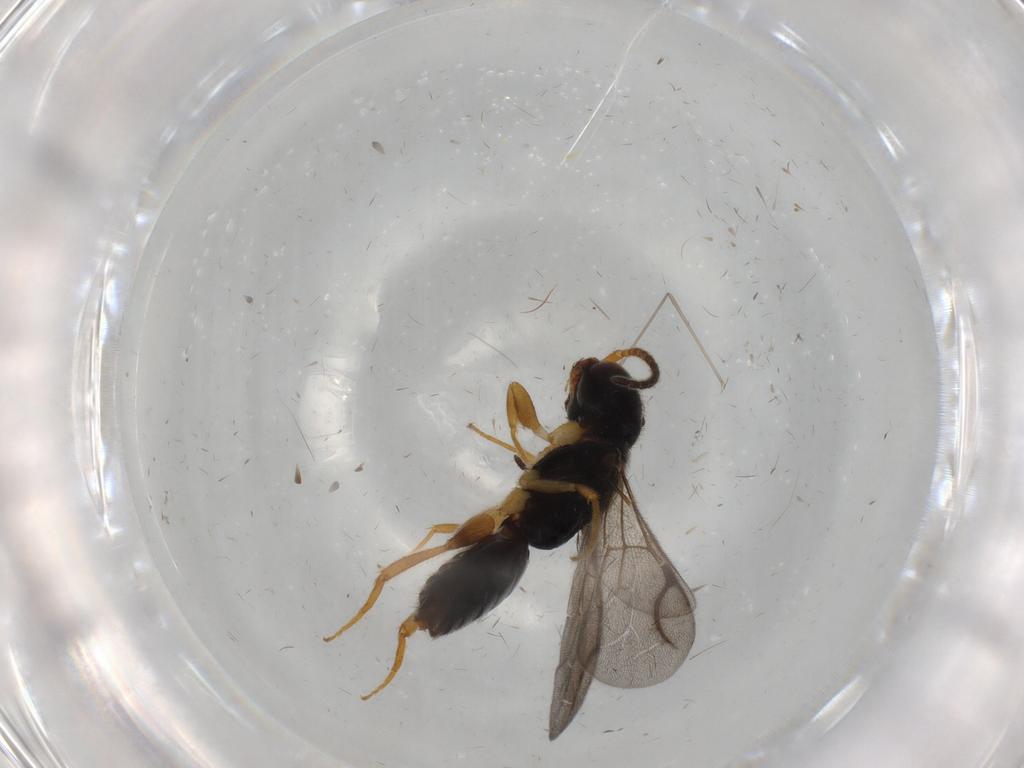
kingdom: Animalia
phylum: Arthropoda
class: Insecta
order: Hymenoptera
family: Bethylidae
